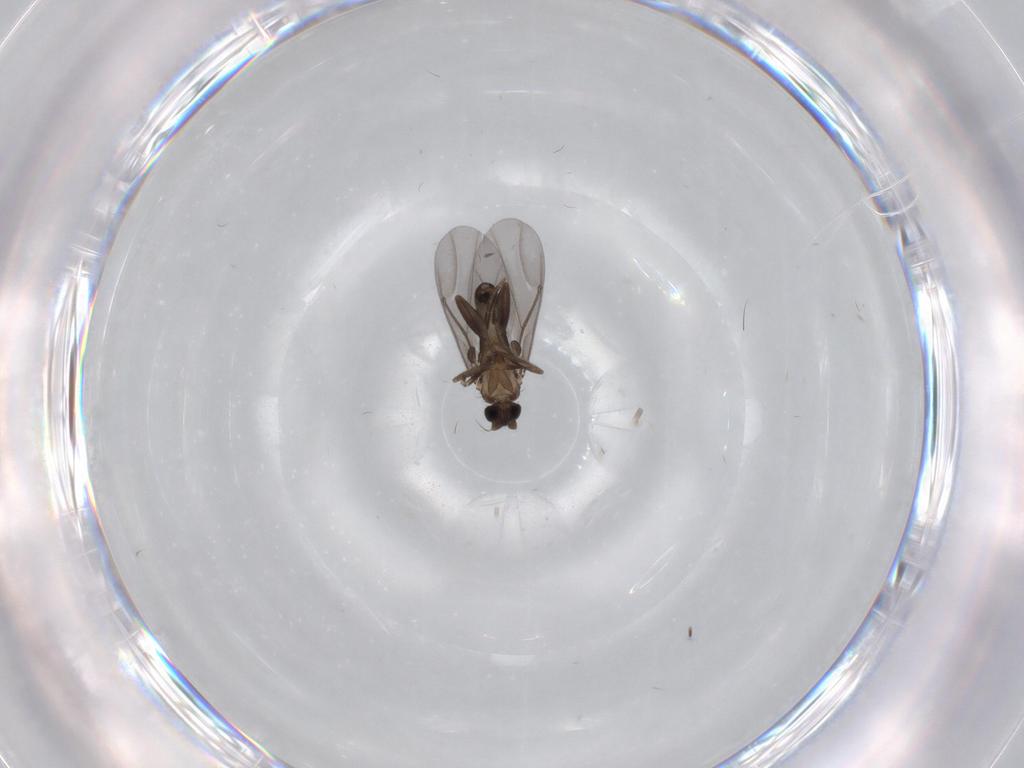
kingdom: Animalia
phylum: Arthropoda
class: Insecta
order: Diptera
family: Phoridae
